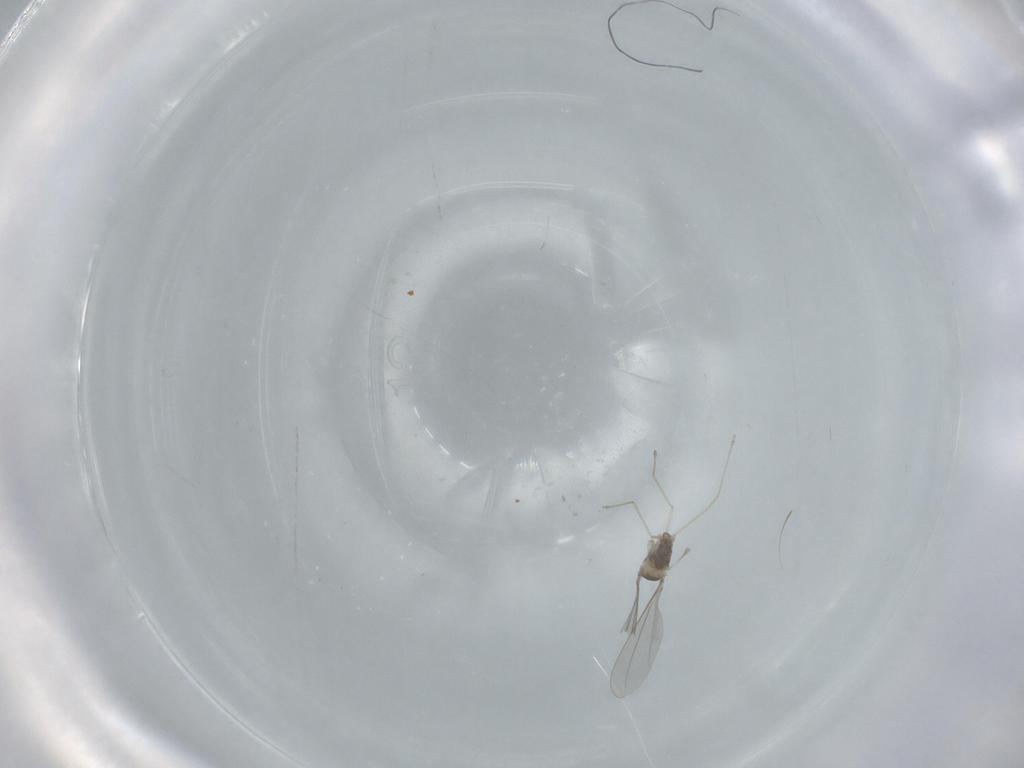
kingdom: Animalia
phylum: Arthropoda
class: Insecta
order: Diptera
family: Cecidomyiidae
